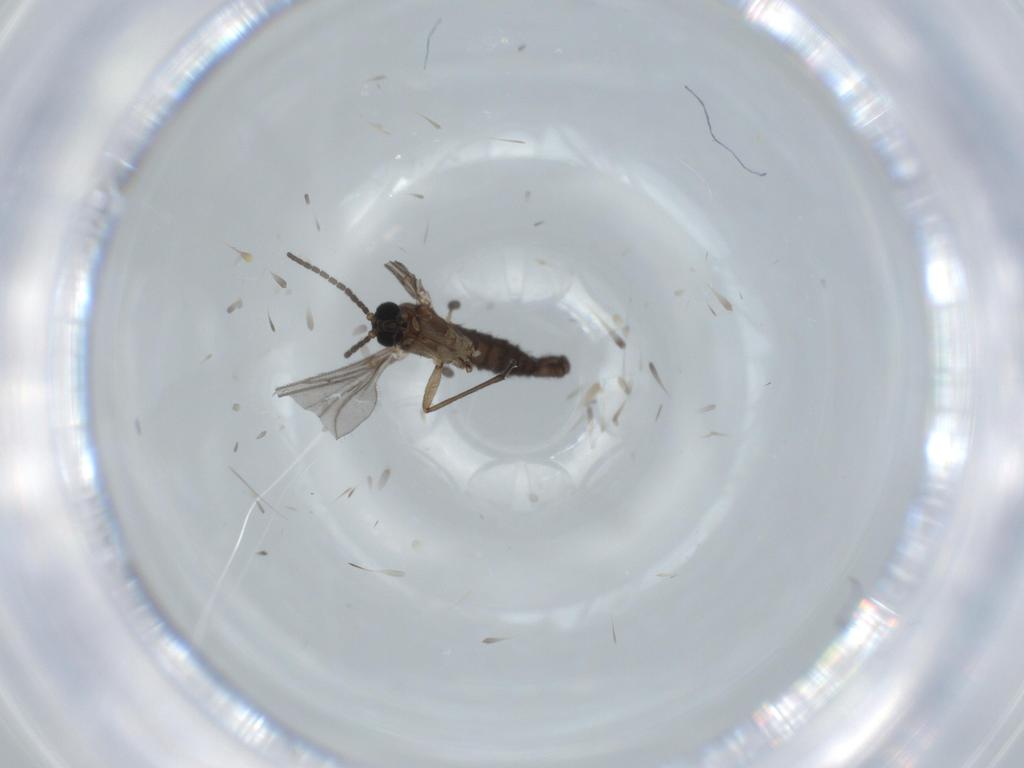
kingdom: Animalia
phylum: Arthropoda
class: Insecta
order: Diptera
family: Sciaridae
